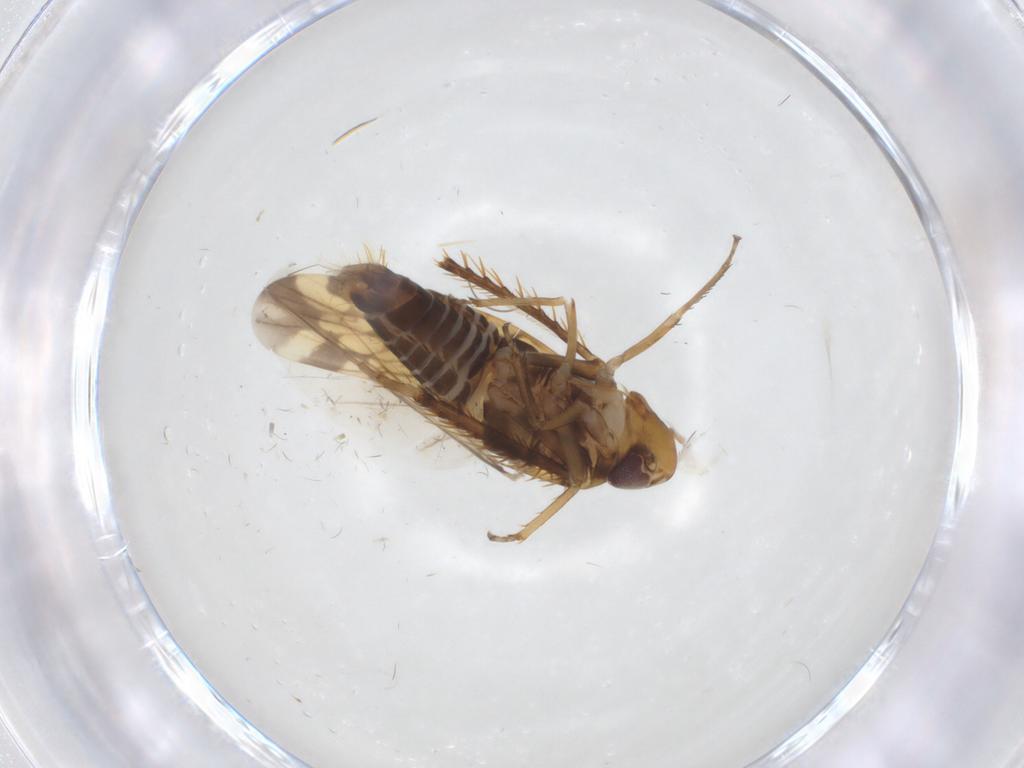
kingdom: Animalia
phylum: Arthropoda
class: Insecta
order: Hemiptera
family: Cicadellidae
